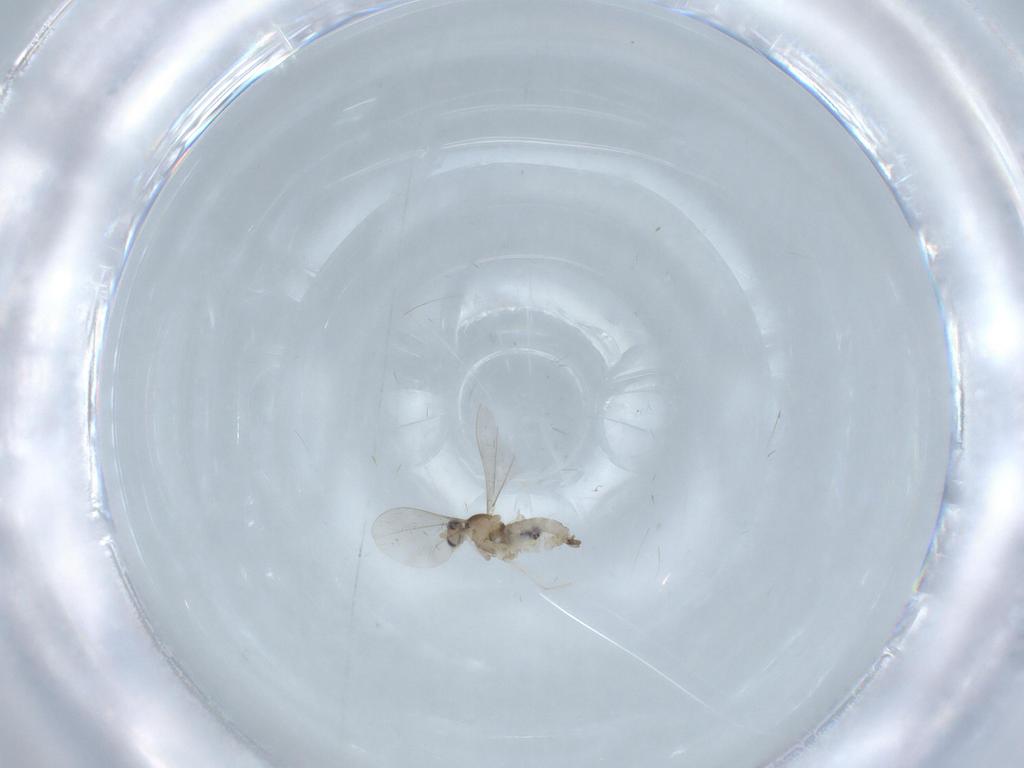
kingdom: Animalia
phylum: Arthropoda
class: Insecta
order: Diptera
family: Cecidomyiidae
